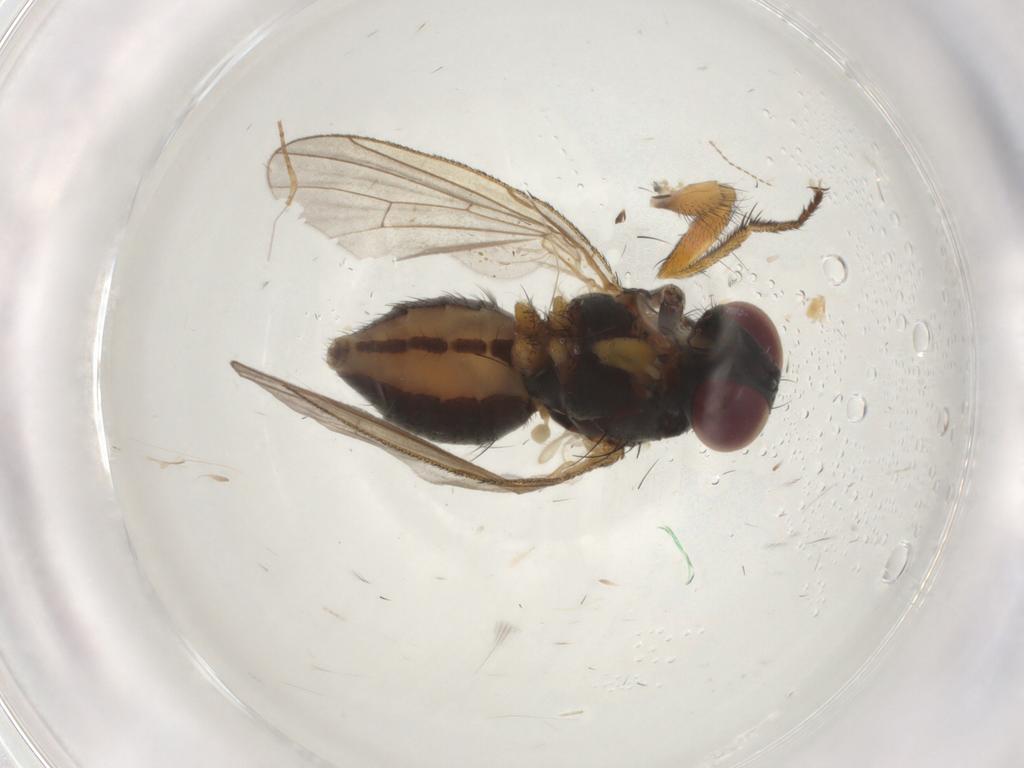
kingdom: Animalia
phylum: Arthropoda
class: Insecta
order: Diptera
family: Muscidae
